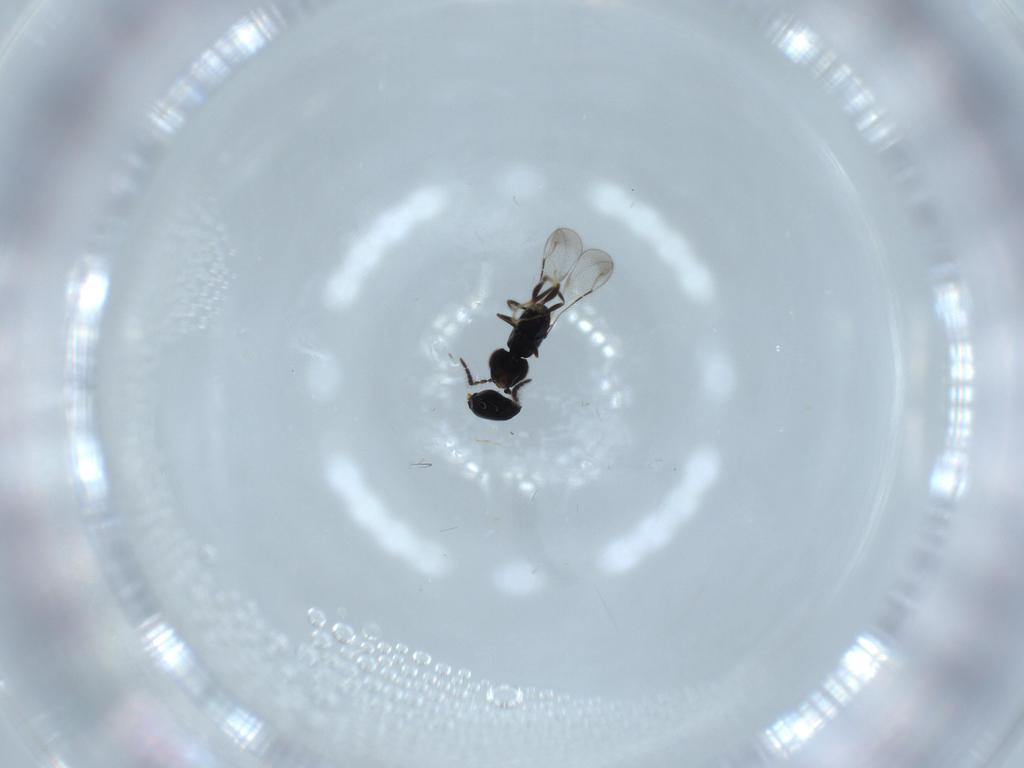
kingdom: Animalia
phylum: Arthropoda
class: Insecta
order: Hymenoptera
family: Ceraphronidae
